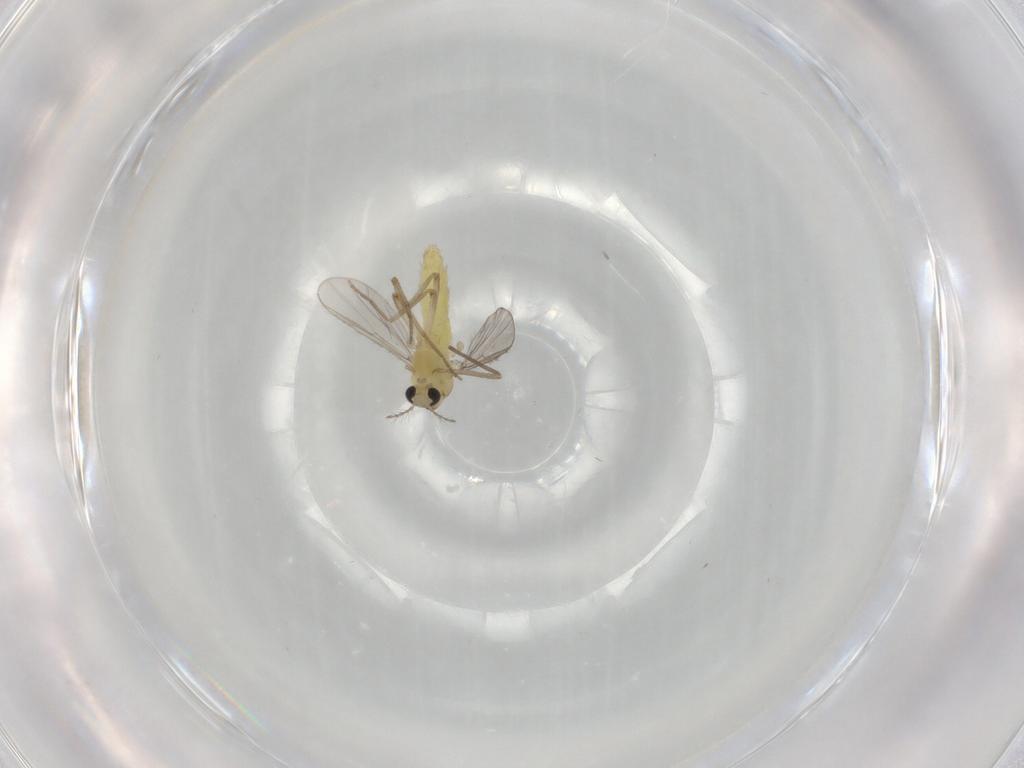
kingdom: Animalia
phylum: Arthropoda
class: Insecta
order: Diptera
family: Chironomidae
